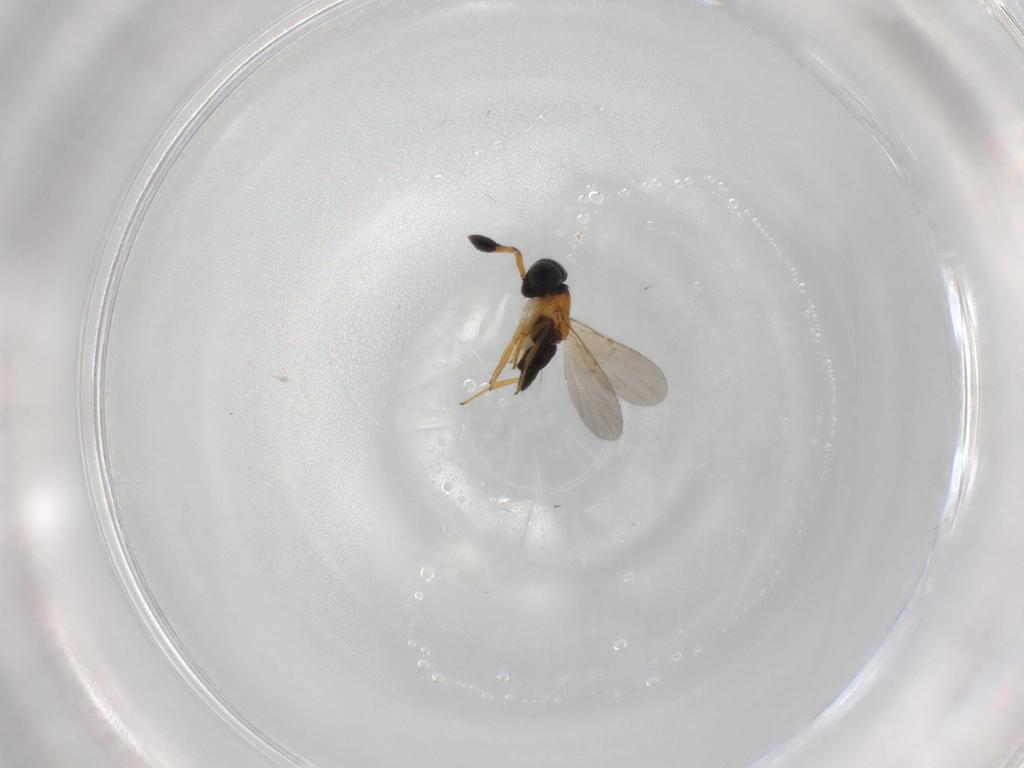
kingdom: Animalia
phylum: Arthropoda
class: Insecta
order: Hymenoptera
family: Encyrtidae
